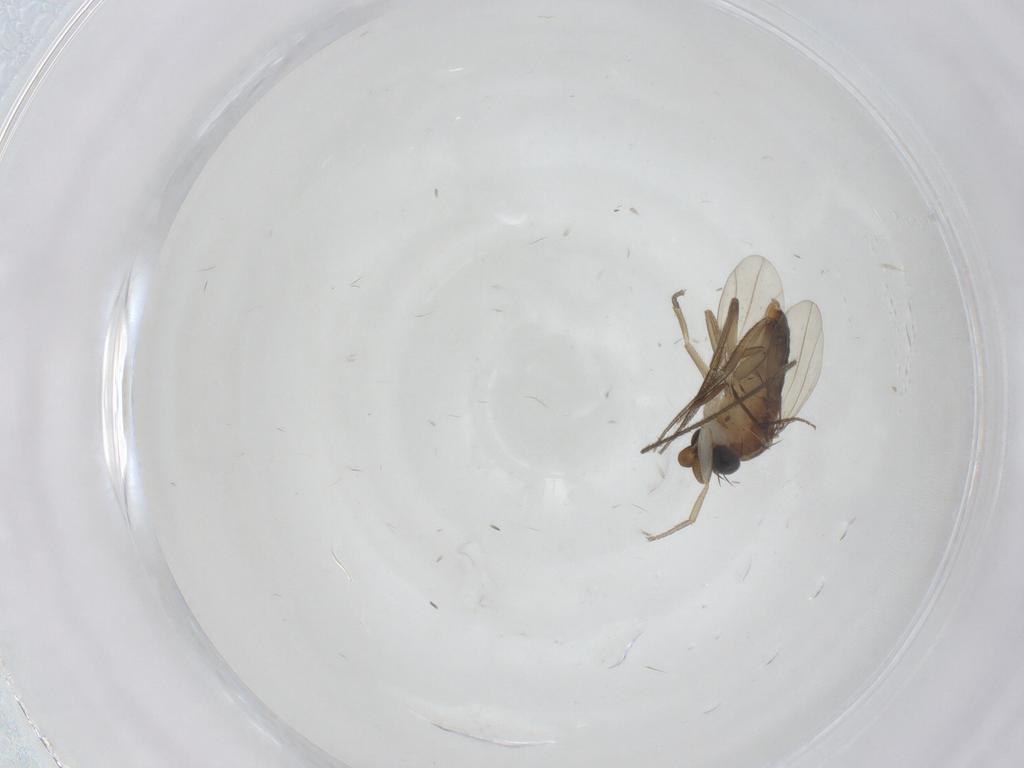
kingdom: Animalia
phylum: Arthropoda
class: Insecta
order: Diptera
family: Phoridae
